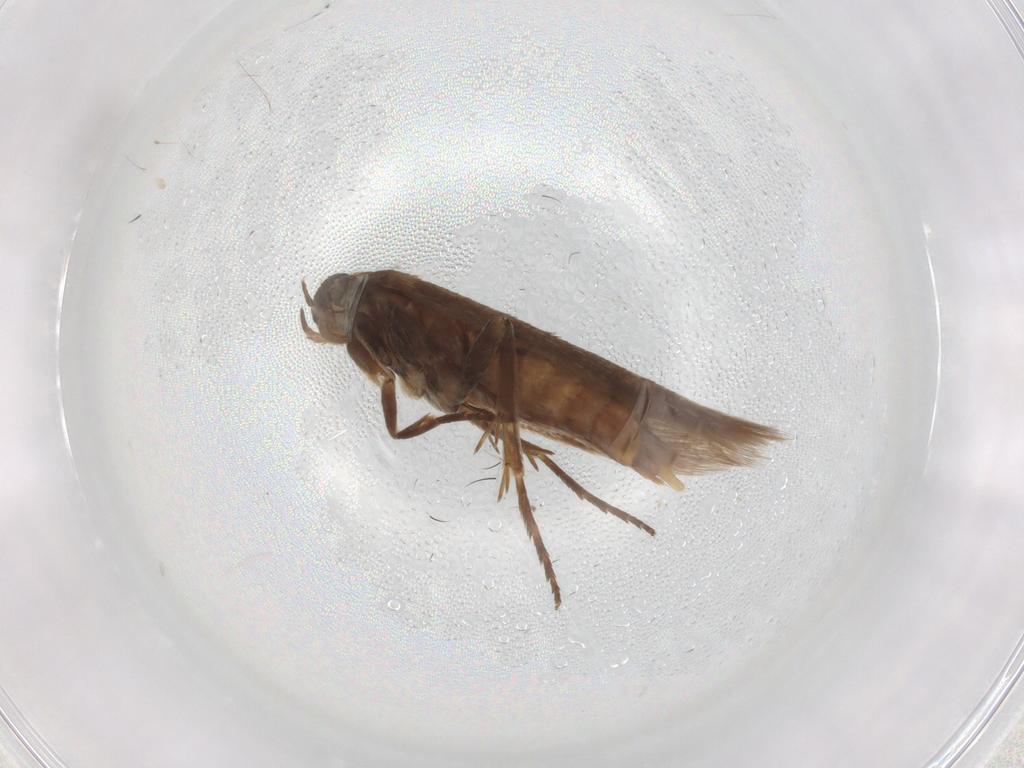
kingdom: Animalia
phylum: Arthropoda
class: Insecta
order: Lepidoptera
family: Scythrididae
